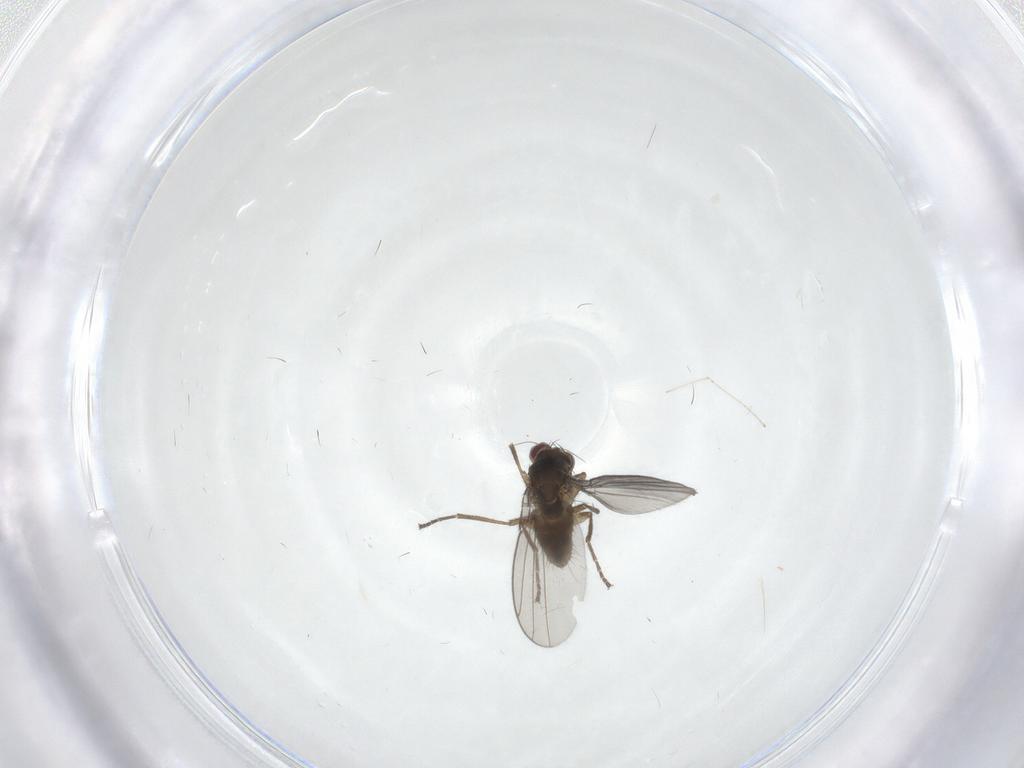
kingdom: Animalia
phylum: Arthropoda
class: Insecta
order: Diptera
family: Agromyzidae
